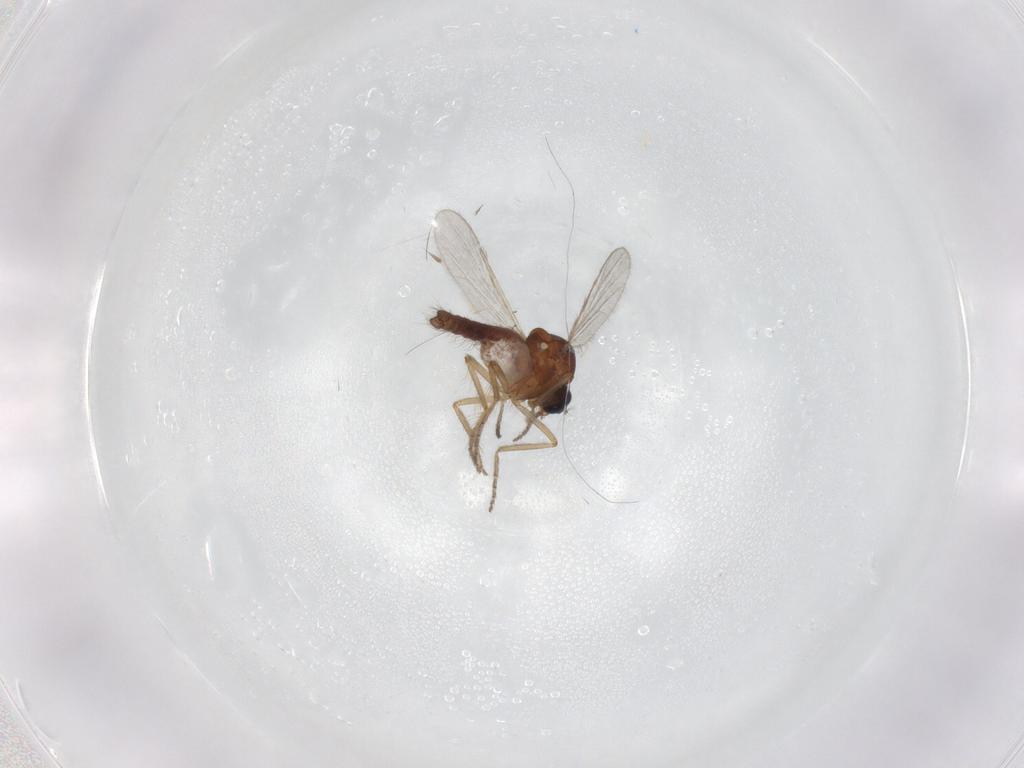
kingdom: Animalia
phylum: Arthropoda
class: Insecta
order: Diptera
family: Ceratopogonidae
